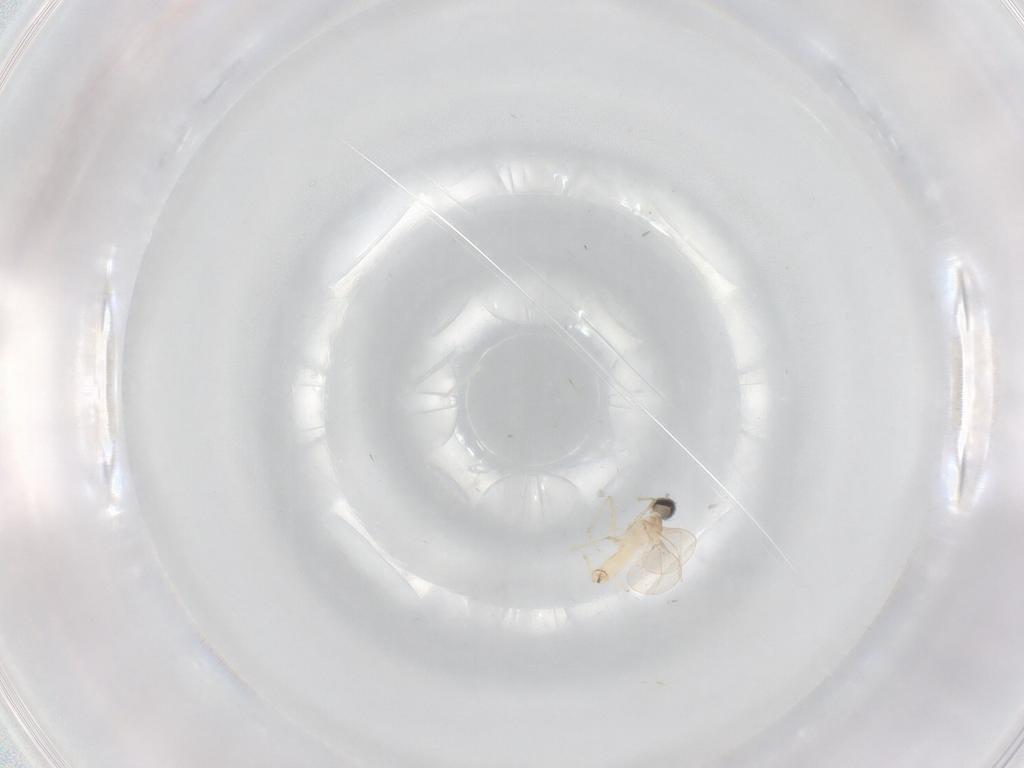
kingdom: Animalia
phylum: Arthropoda
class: Insecta
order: Diptera
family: Cecidomyiidae
